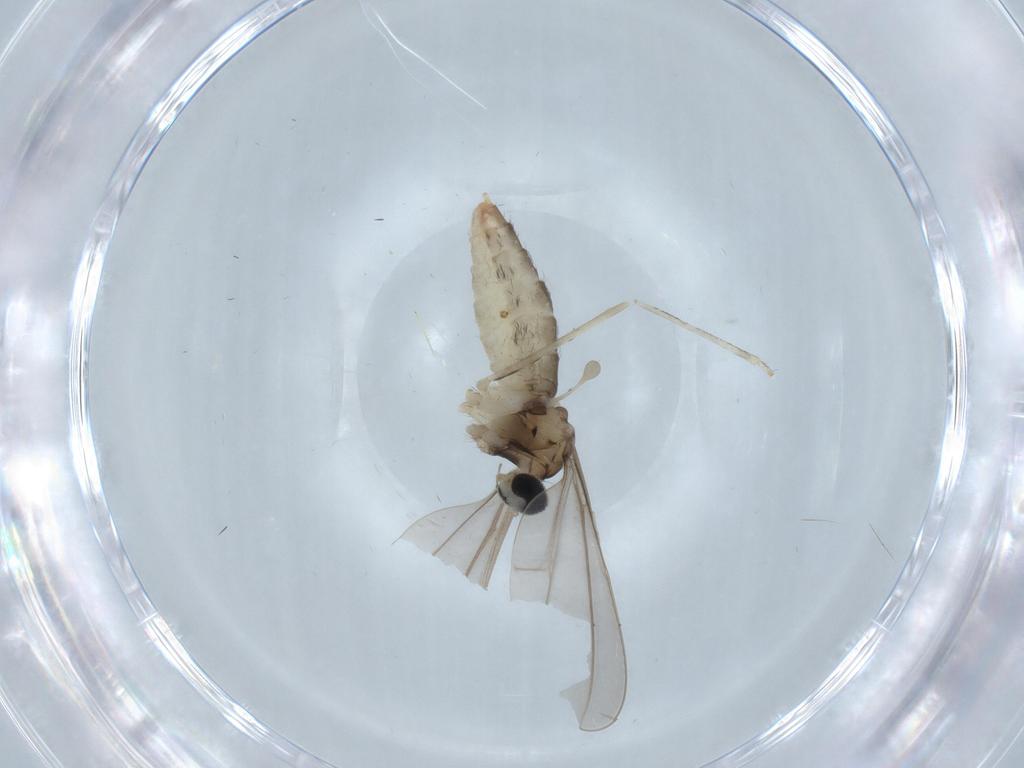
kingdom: Animalia
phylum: Arthropoda
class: Insecta
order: Diptera
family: Cecidomyiidae
